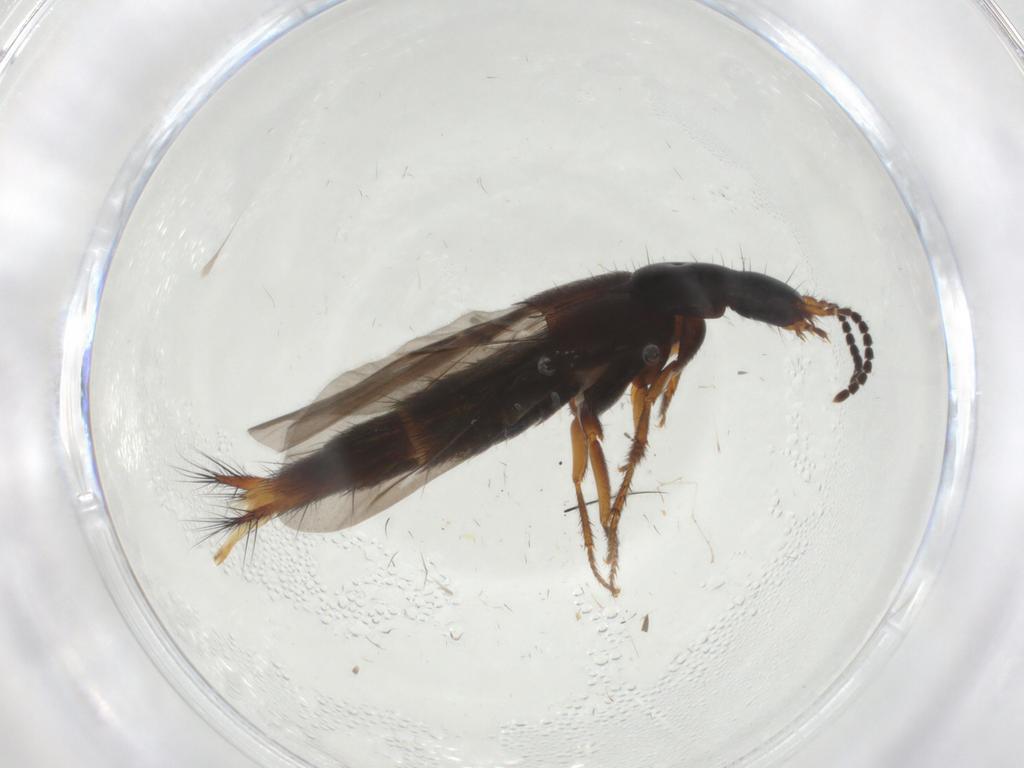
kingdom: Animalia
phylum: Arthropoda
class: Insecta
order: Coleoptera
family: Staphylinidae
